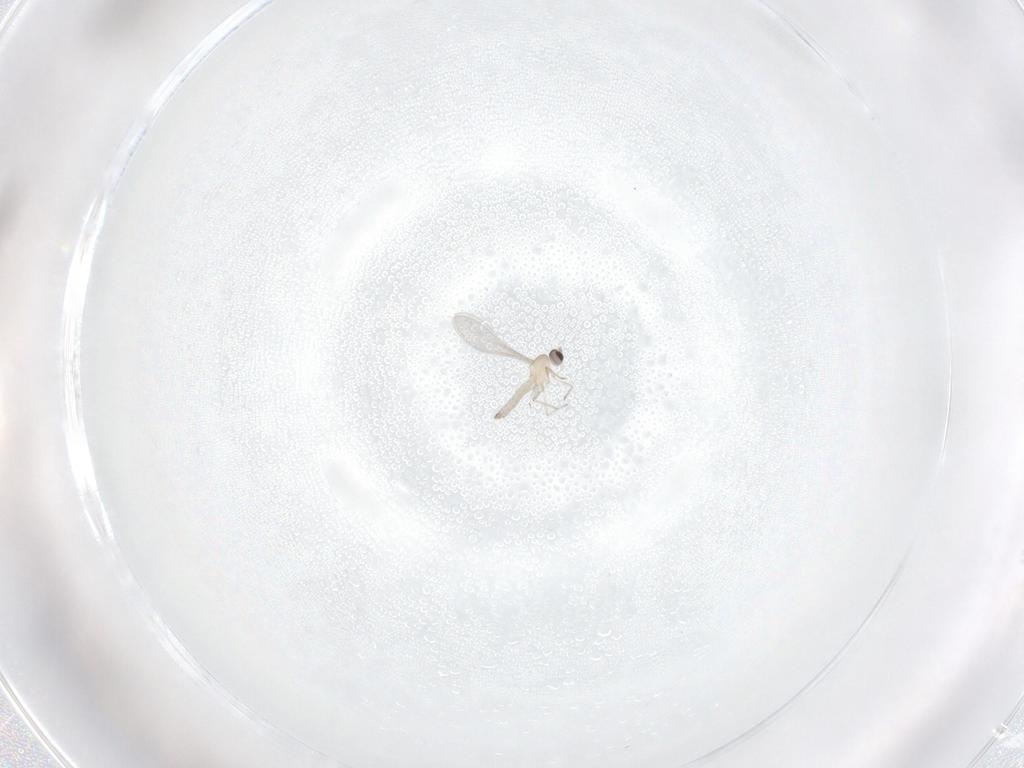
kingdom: Animalia
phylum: Arthropoda
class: Insecta
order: Diptera
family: Cecidomyiidae
